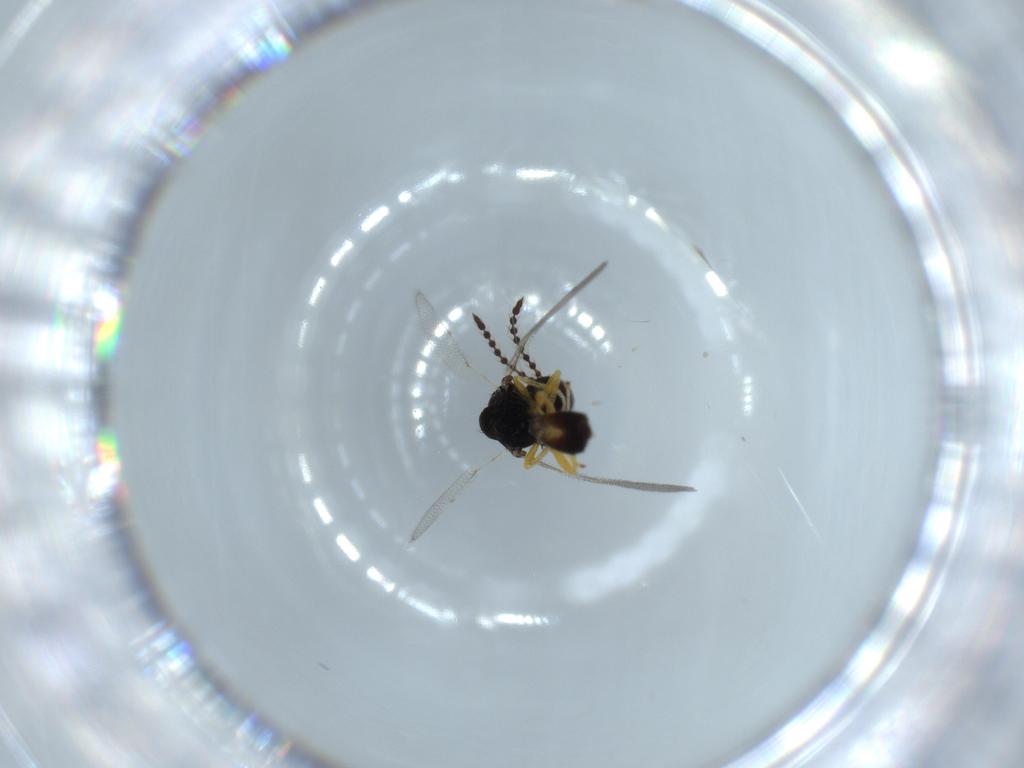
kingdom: Animalia
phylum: Arthropoda
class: Insecta
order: Hymenoptera
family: Pteromalidae
